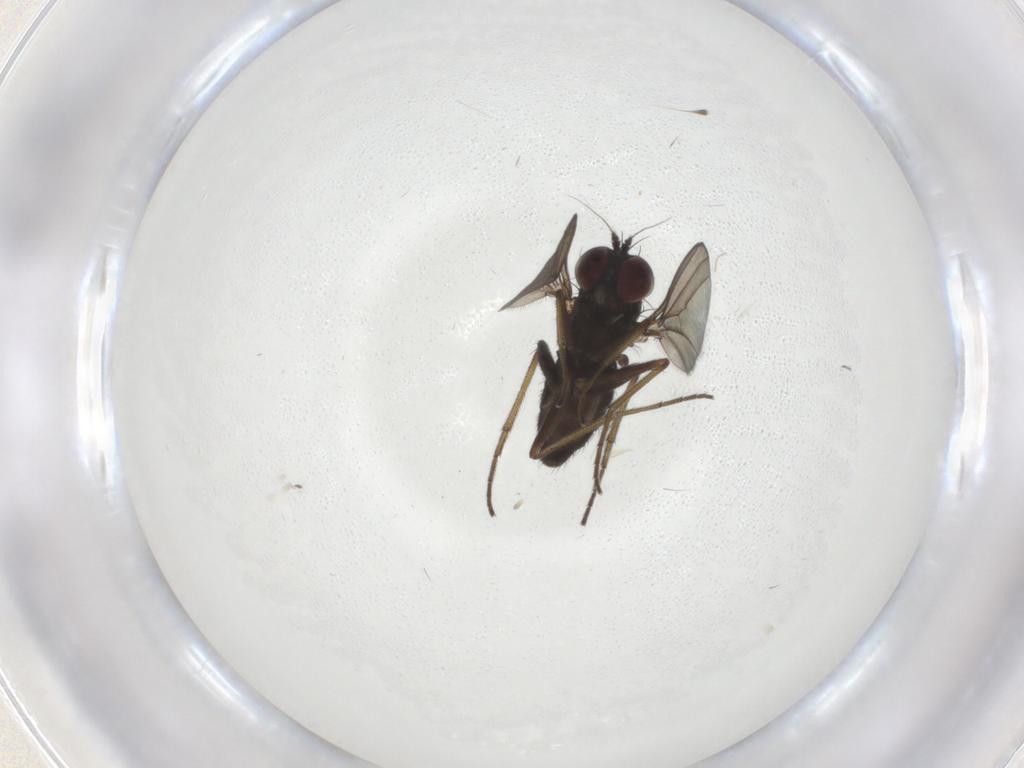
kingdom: Animalia
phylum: Arthropoda
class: Insecta
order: Diptera
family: Dolichopodidae
